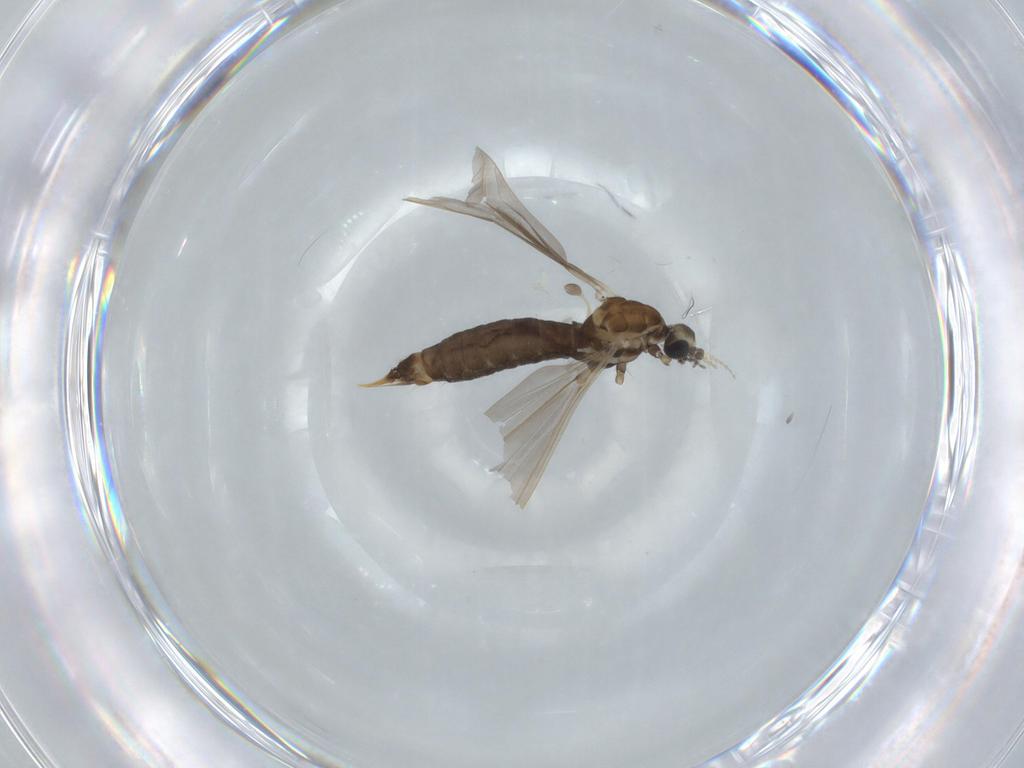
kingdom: Animalia
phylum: Arthropoda
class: Insecta
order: Diptera
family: Limoniidae
